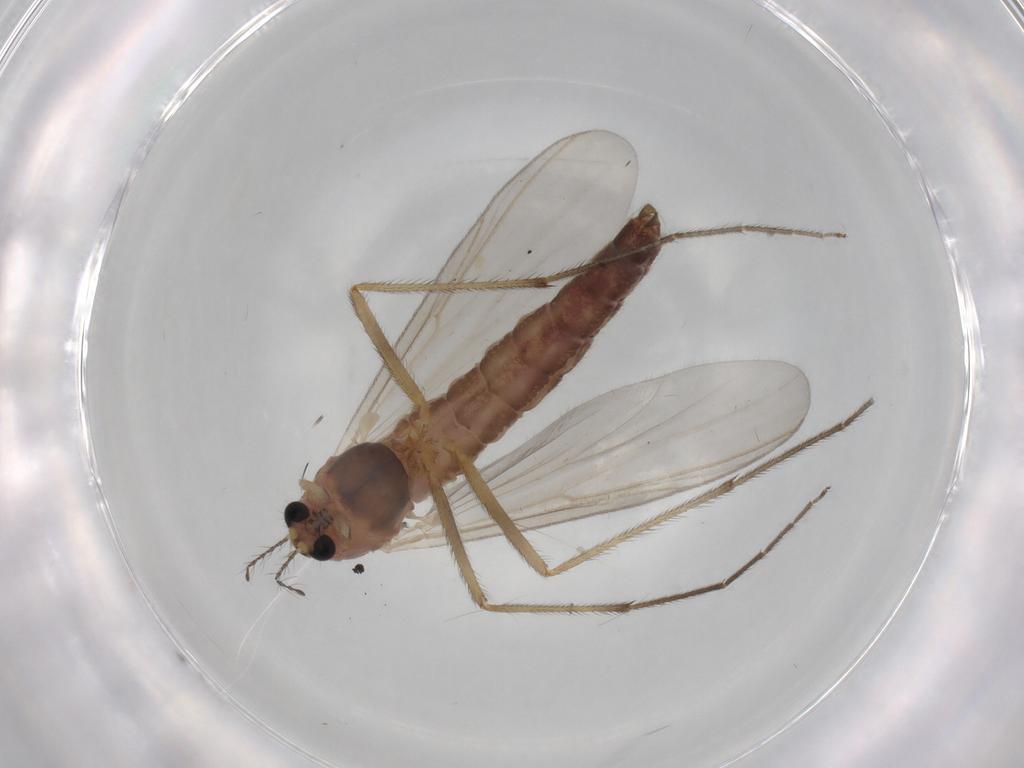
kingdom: Animalia
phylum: Arthropoda
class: Insecta
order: Diptera
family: Chironomidae
